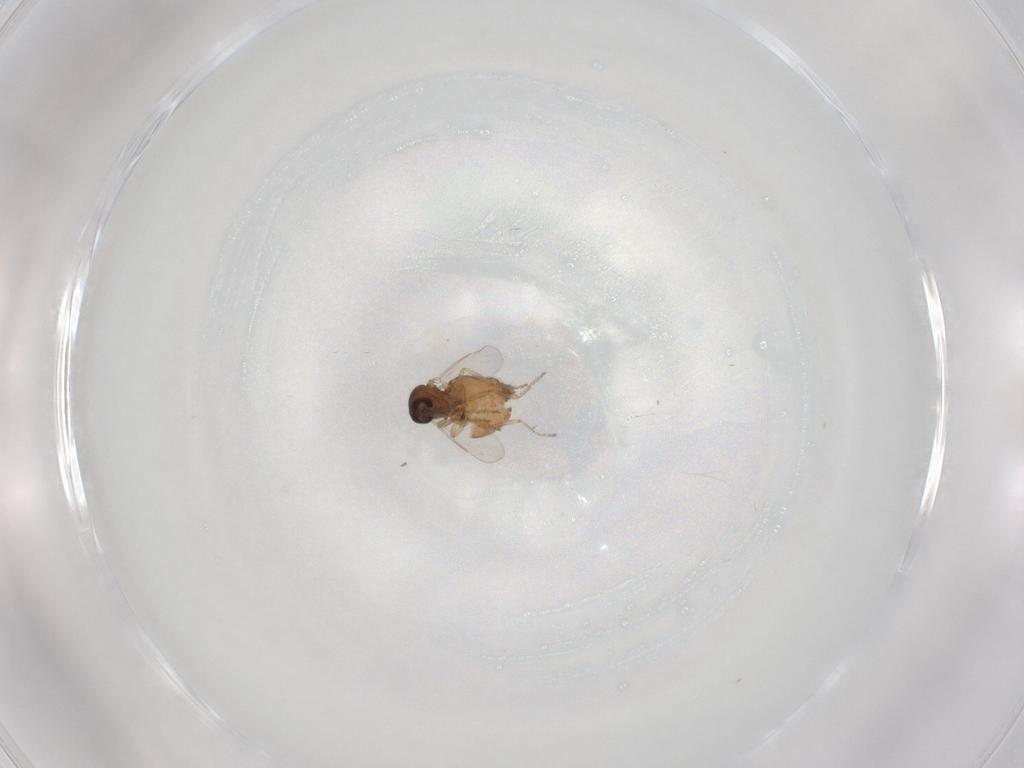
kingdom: Animalia
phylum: Arthropoda
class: Insecta
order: Diptera
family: Ceratopogonidae
